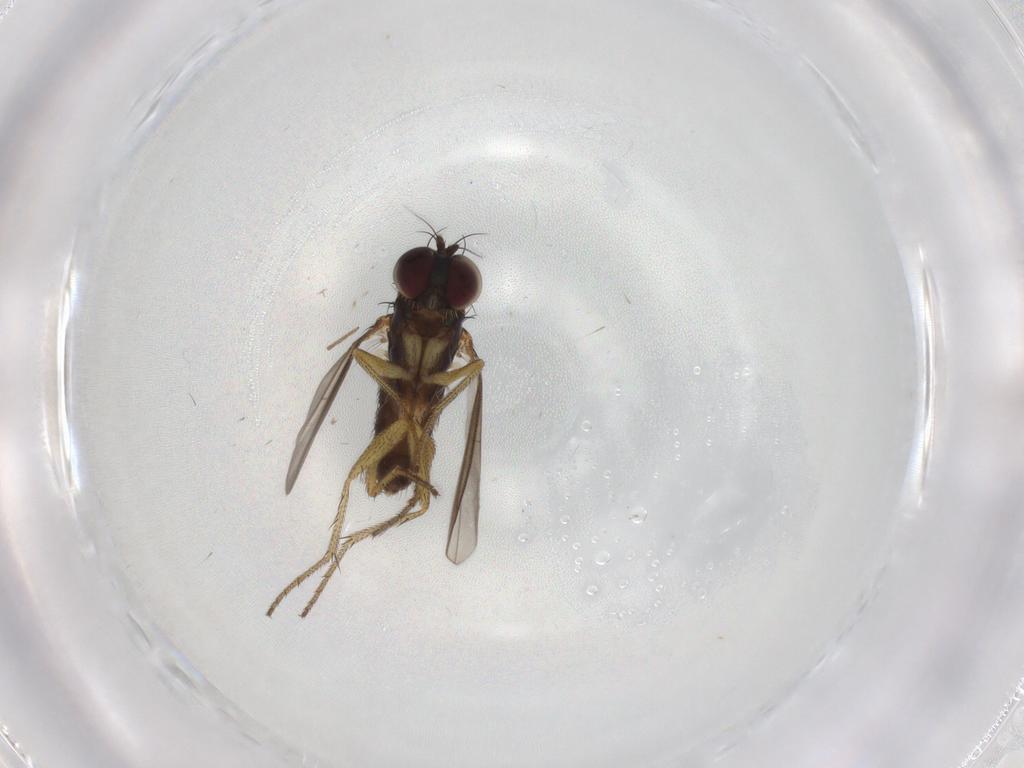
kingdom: Animalia
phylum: Arthropoda
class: Insecta
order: Diptera
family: Dolichopodidae
